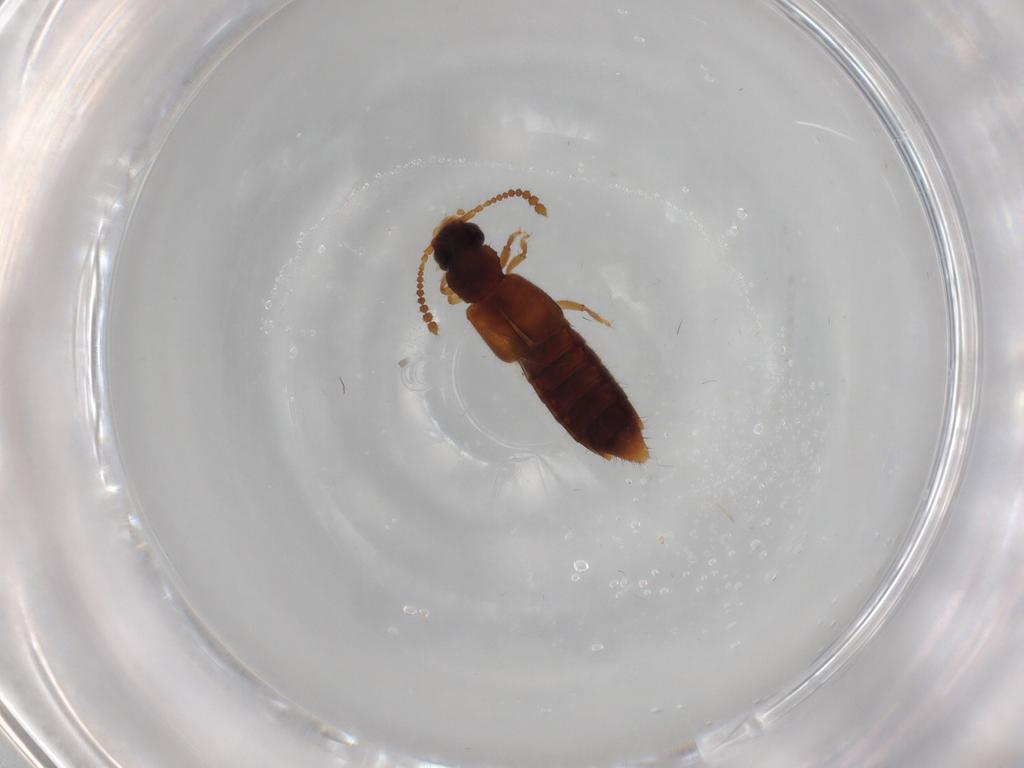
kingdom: Animalia
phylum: Arthropoda
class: Insecta
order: Coleoptera
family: Staphylinidae
